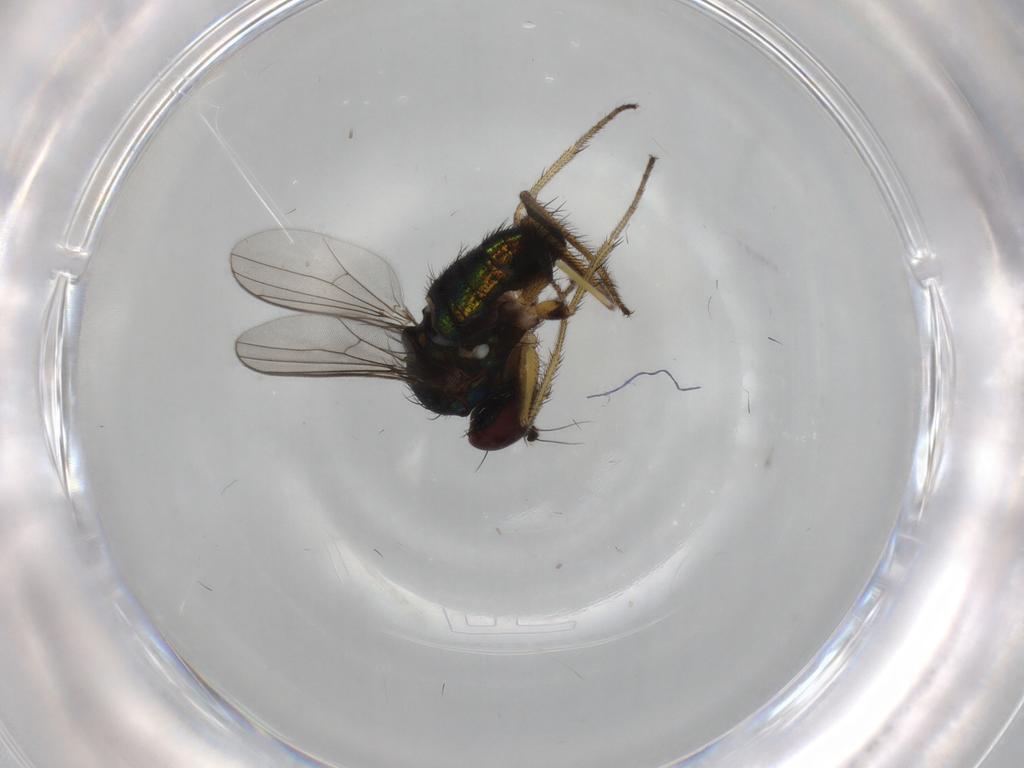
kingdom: Animalia
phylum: Arthropoda
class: Insecta
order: Diptera
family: Dolichopodidae
